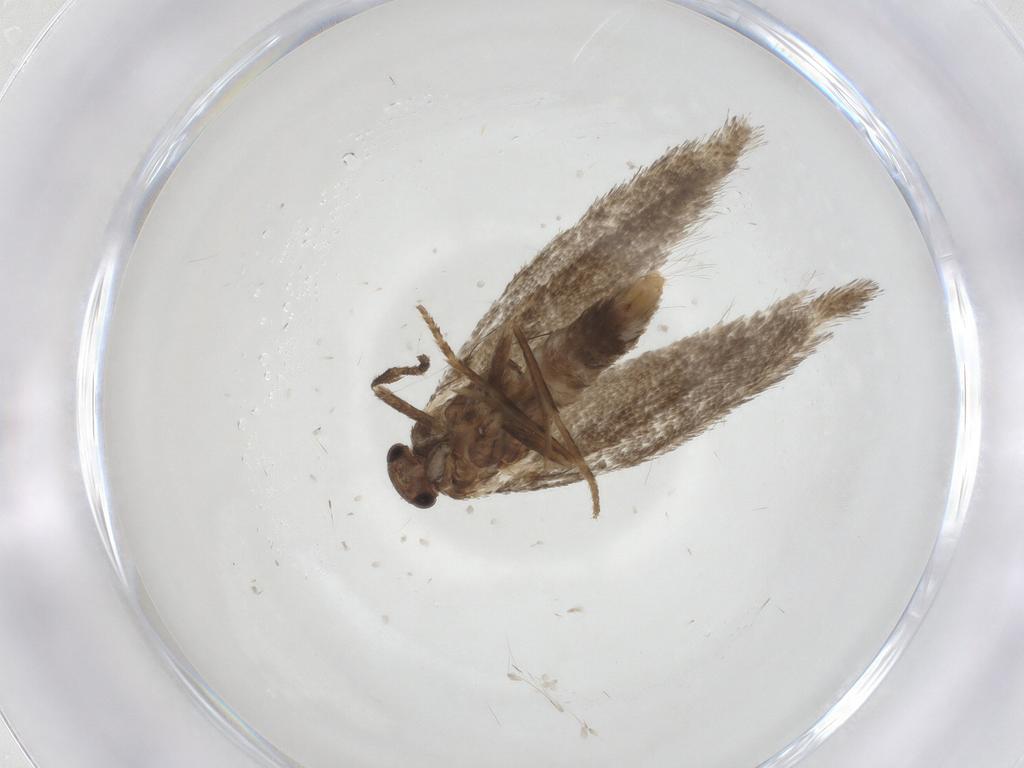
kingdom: Animalia
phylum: Arthropoda
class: Insecta
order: Lepidoptera
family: Elachistidae
